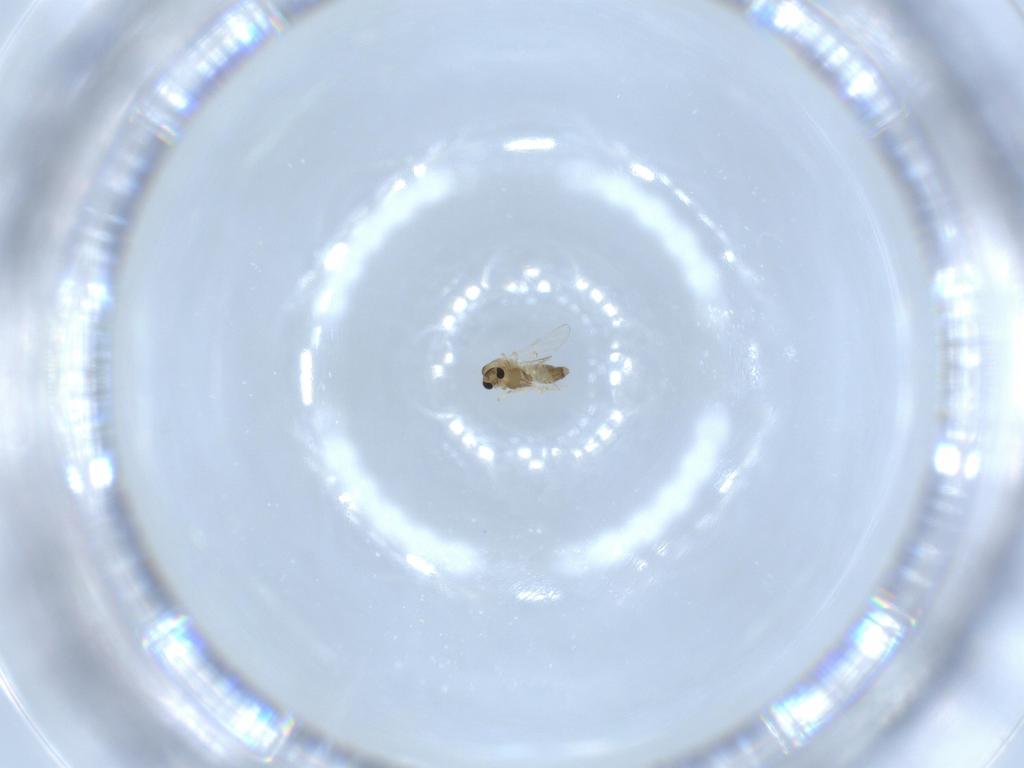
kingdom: Animalia
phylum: Arthropoda
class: Insecta
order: Diptera
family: Chironomidae
